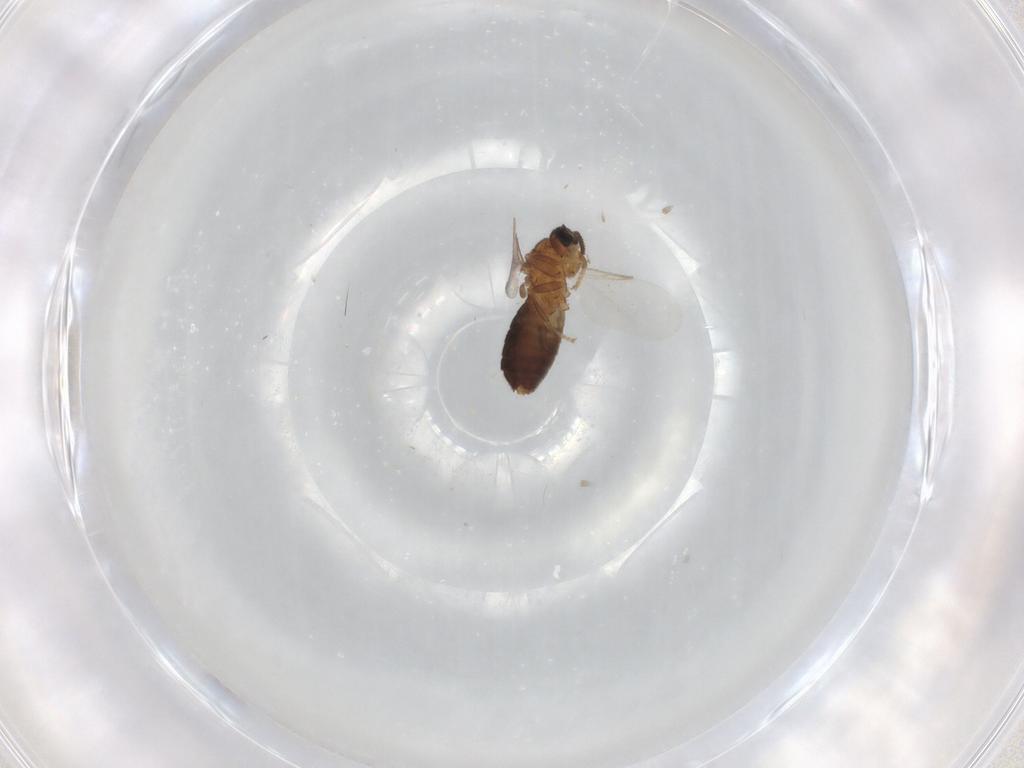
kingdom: Animalia
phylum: Arthropoda
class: Insecta
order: Diptera
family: Scatopsidae
